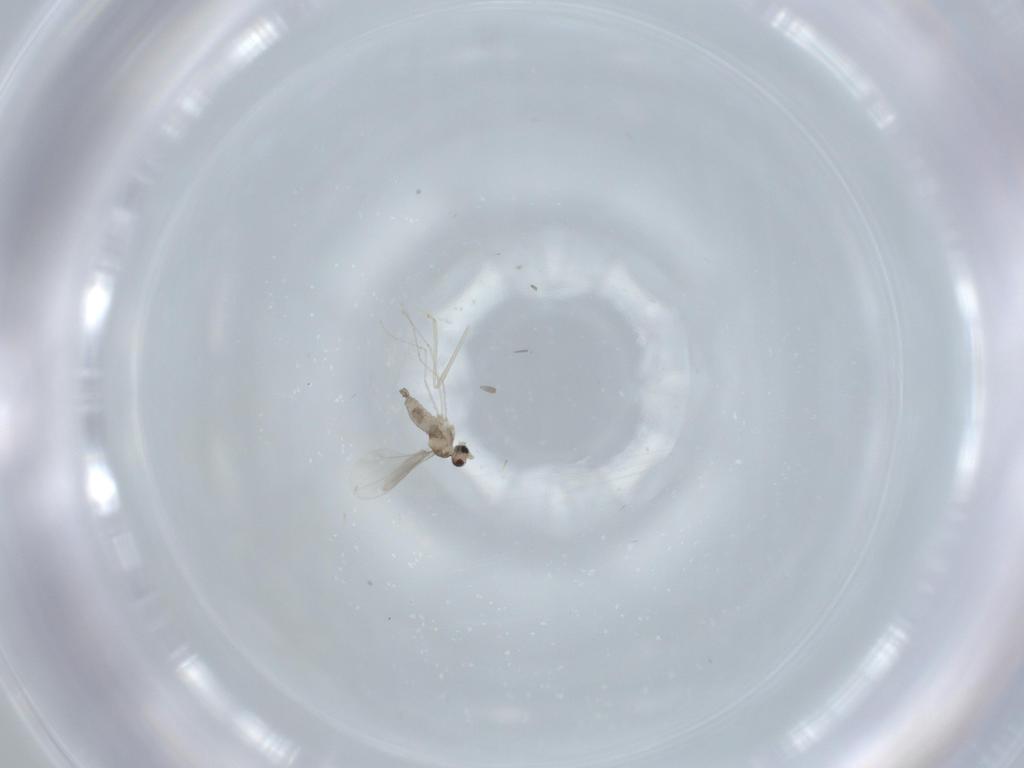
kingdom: Animalia
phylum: Arthropoda
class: Insecta
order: Diptera
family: Cecidomyiidae
